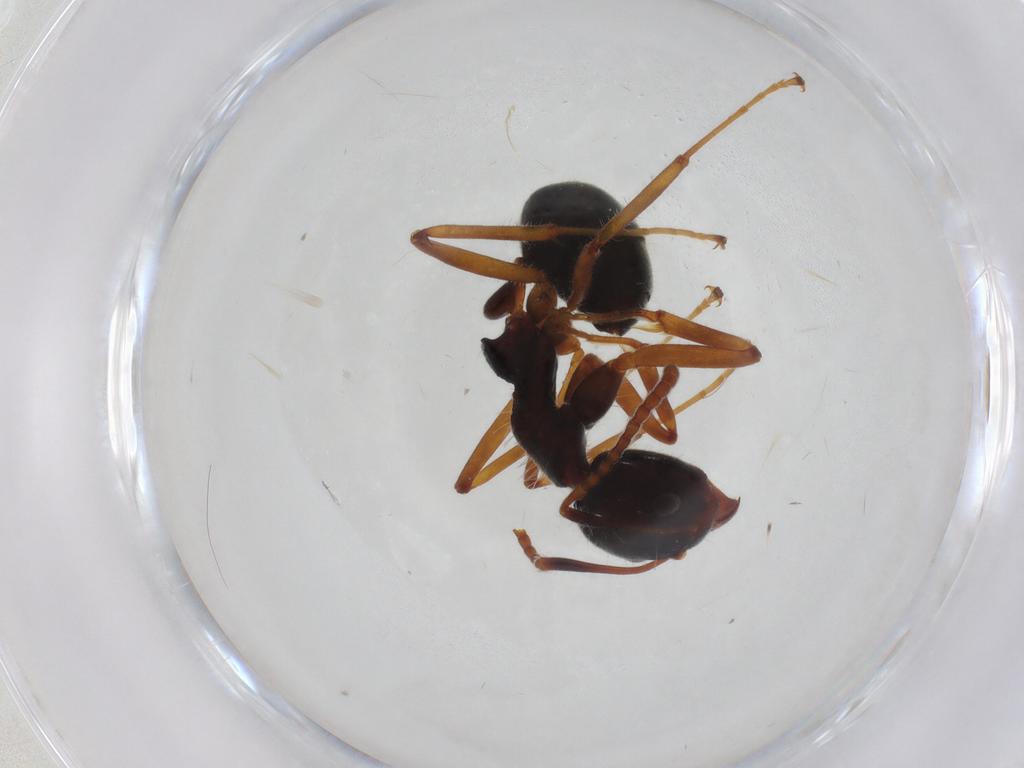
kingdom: Animalia
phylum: Arthropoda
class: Insecta
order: Hymenoptera
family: Formicidae
